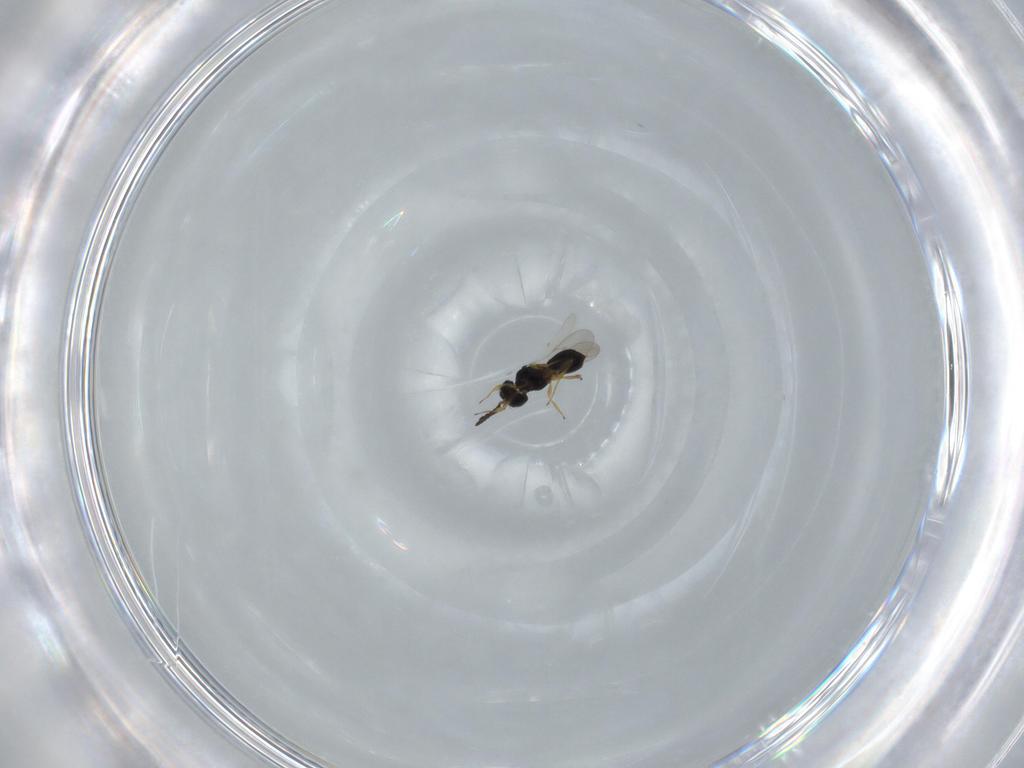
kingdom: Animalia
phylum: Arthropoda
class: Insecta
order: Hymenoptera
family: Scelionidae
